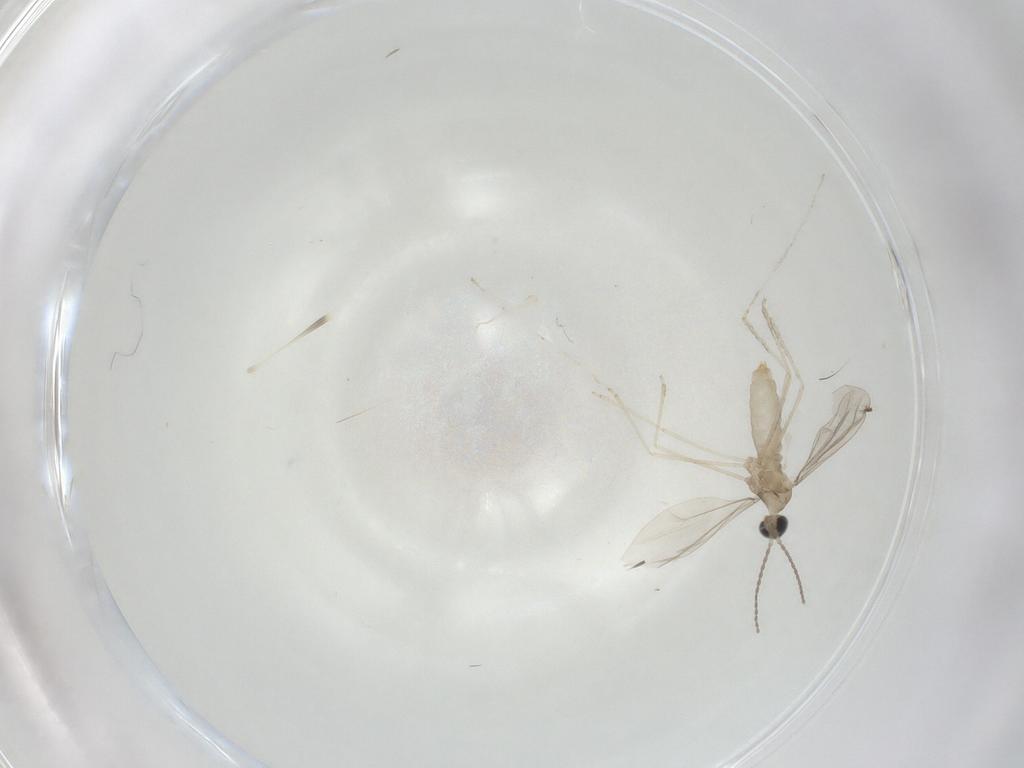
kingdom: Animalia
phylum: Arthropoda
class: Insecta
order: Diptera
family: Cecidomyiidae
